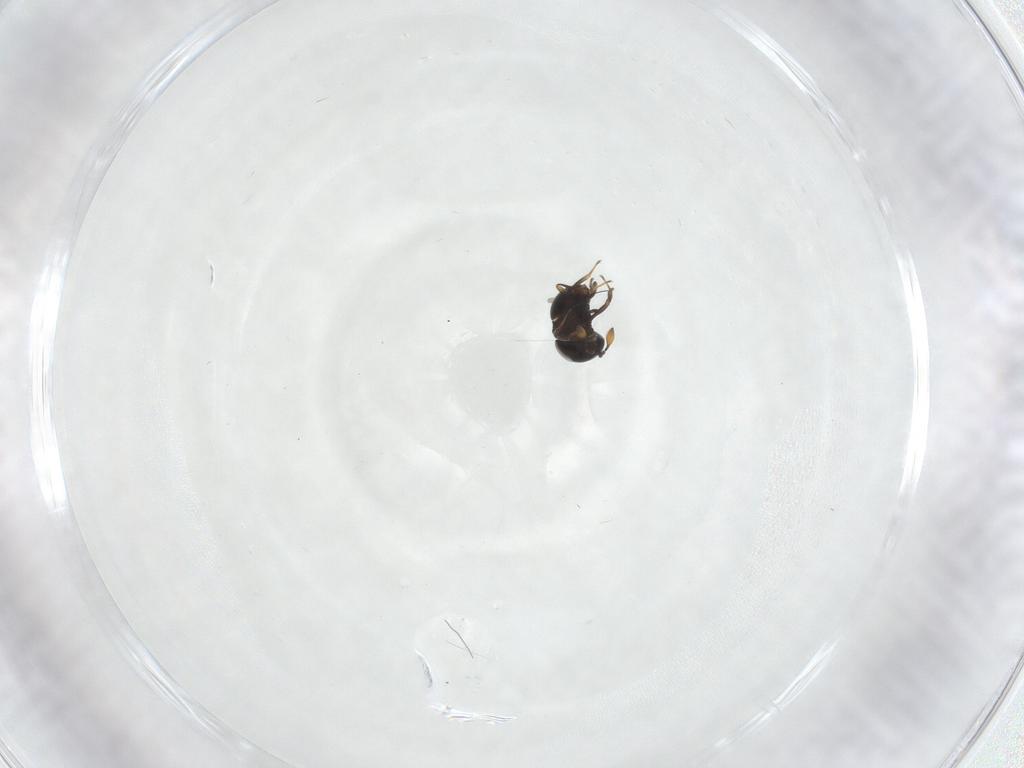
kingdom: Animalia
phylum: Arthropoda
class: Insecta
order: Hymenoptera
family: Scelionidae
